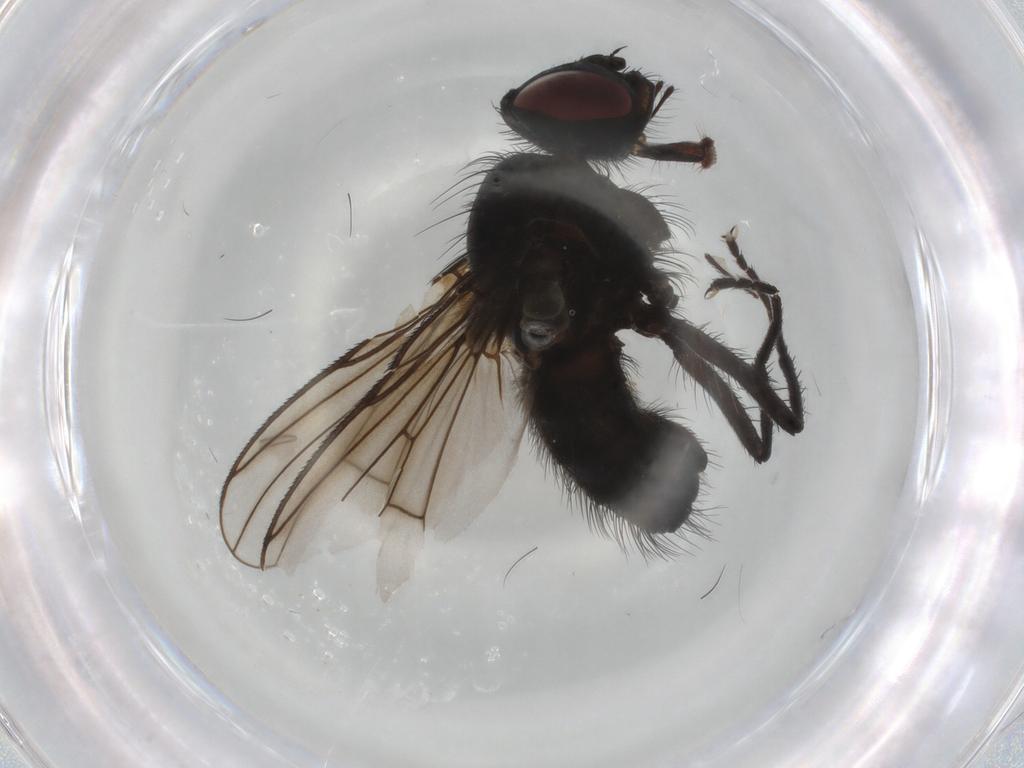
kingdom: Animalia
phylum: Arthropoda
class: Insecta
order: Diptera
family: Muscidae
